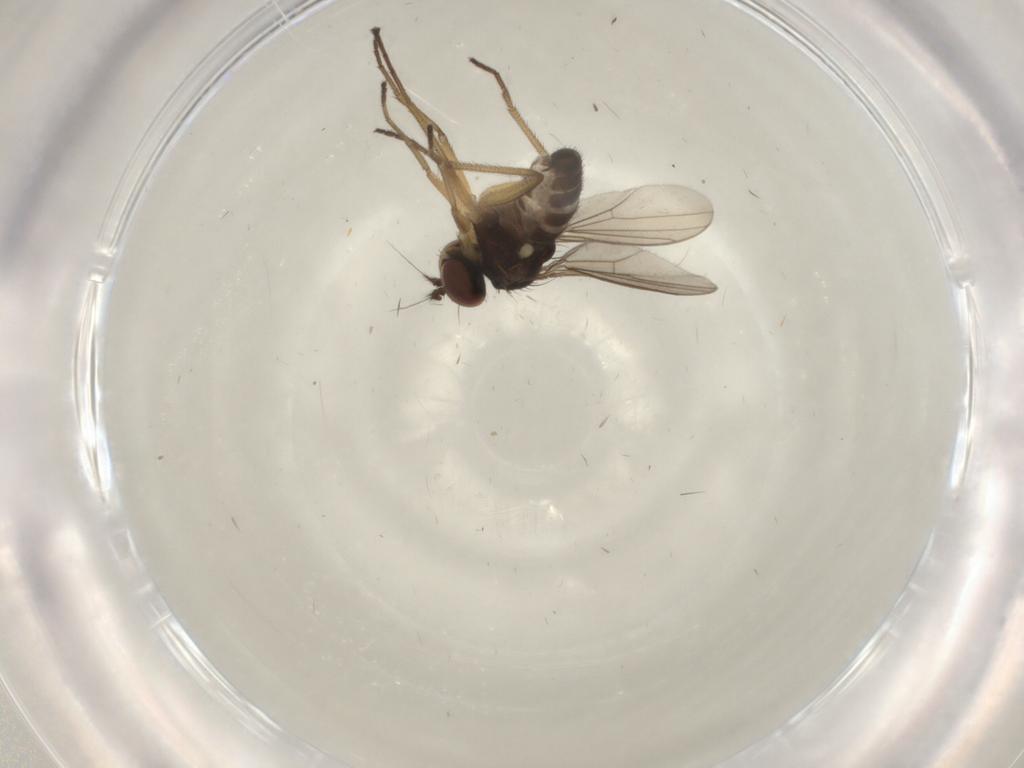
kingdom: Animalia
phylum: Arthropoda
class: Insecta
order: Diptera
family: Dolichopodidae
